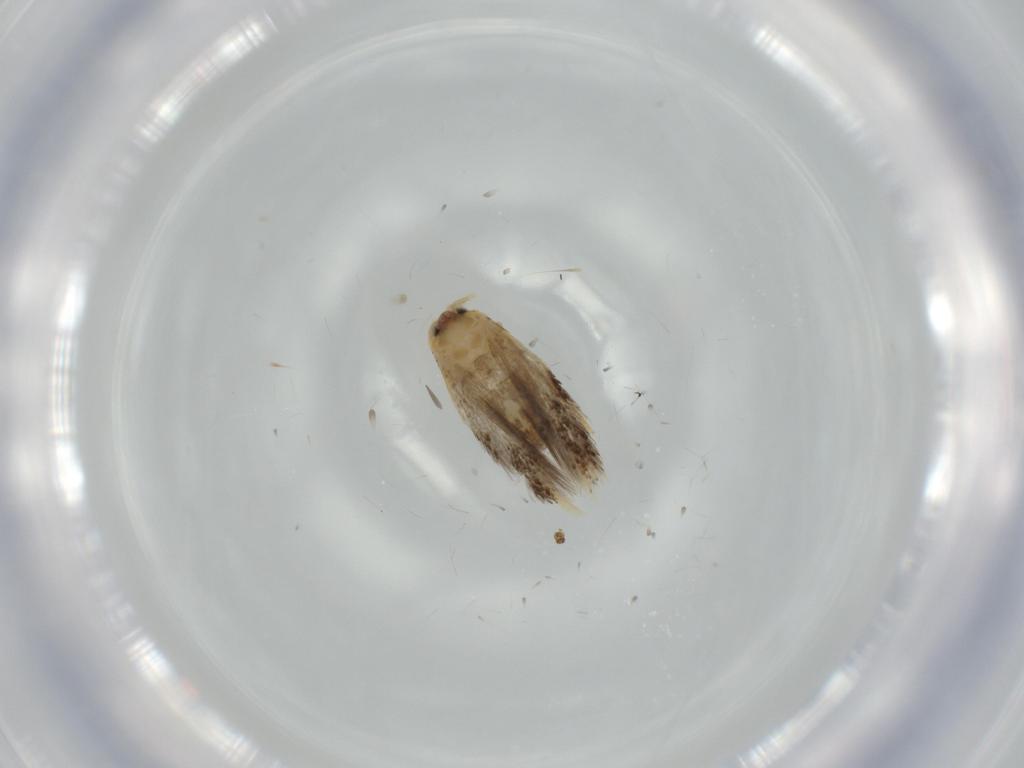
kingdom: Animalia
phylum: Arthropoda
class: Insecta
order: Lepidoptera
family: Nepticulidae
